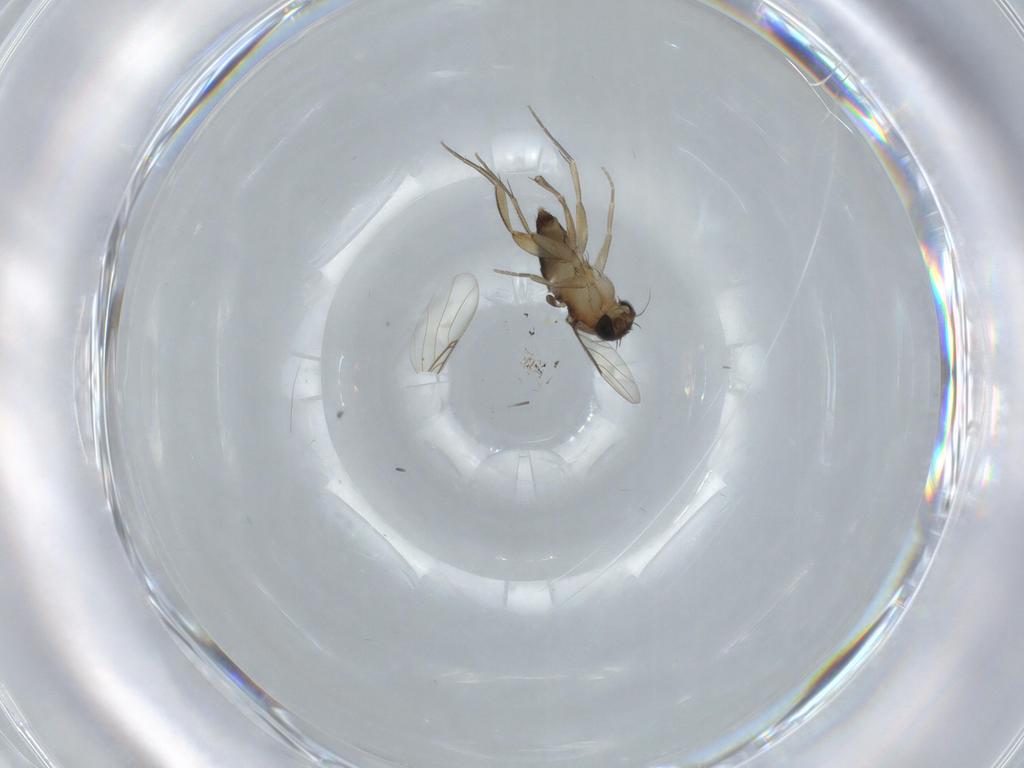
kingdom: Animalia
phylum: Arthropoda
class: Insecta
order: Diptera
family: Phoridae
